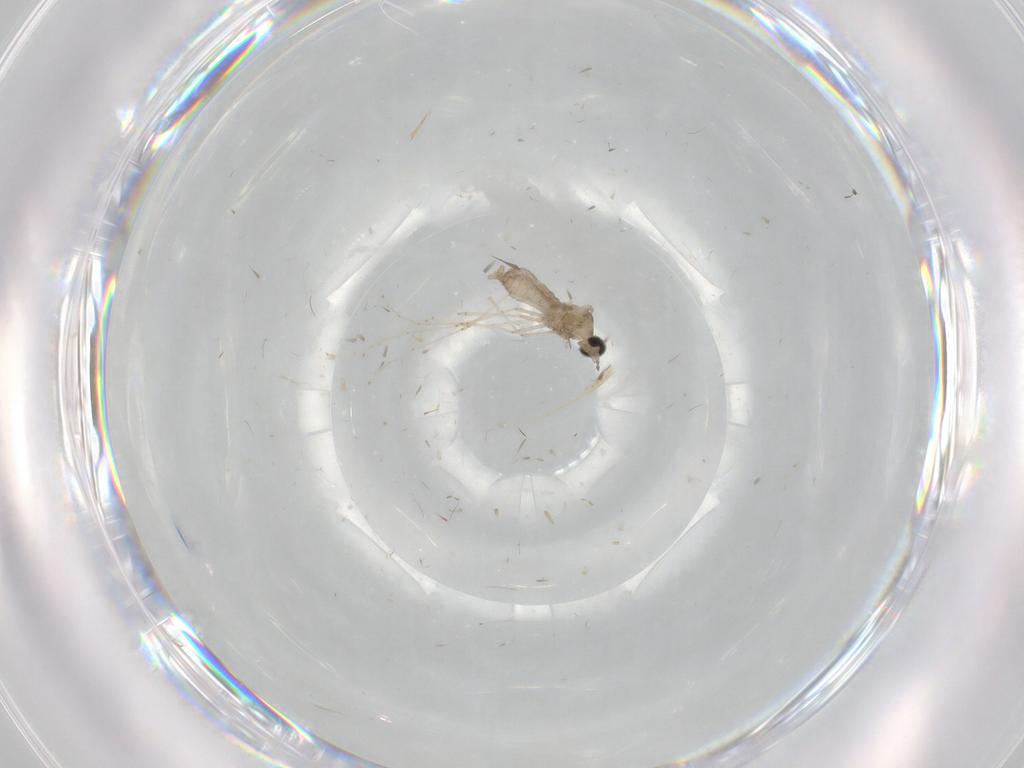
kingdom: Animalia
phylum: Arthropoda
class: Insecta
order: Diptera
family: Cecidomyiidae
